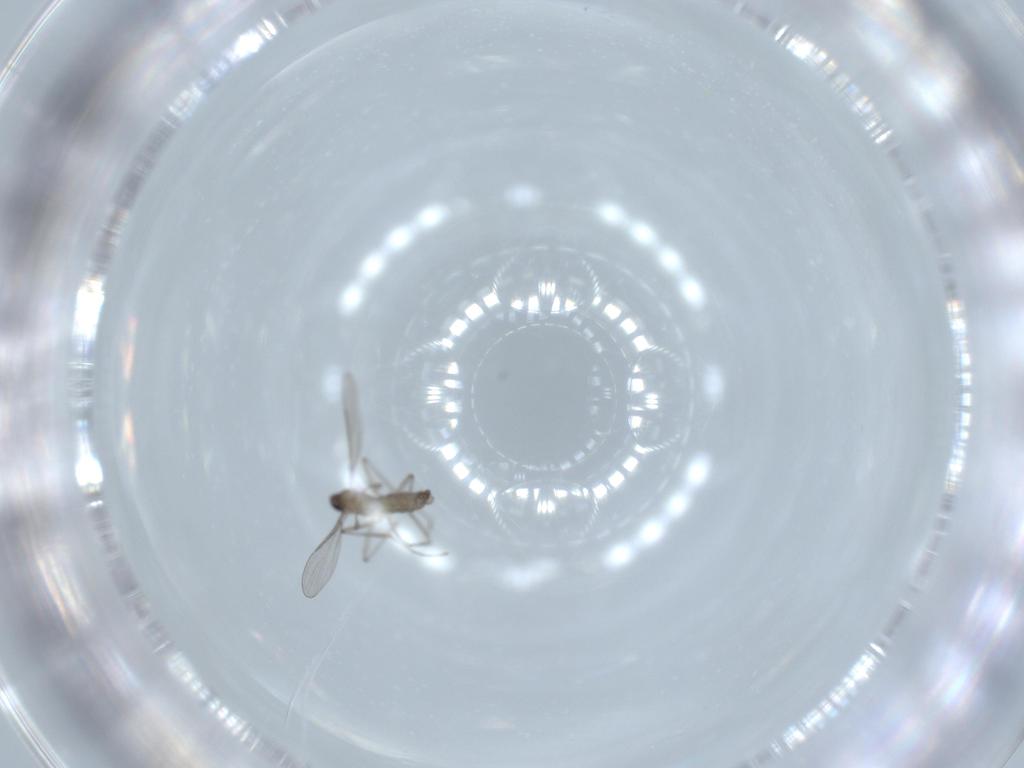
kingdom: Animalia
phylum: Arthropoda
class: Insecta
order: Diptera
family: Cecidomyiidae
